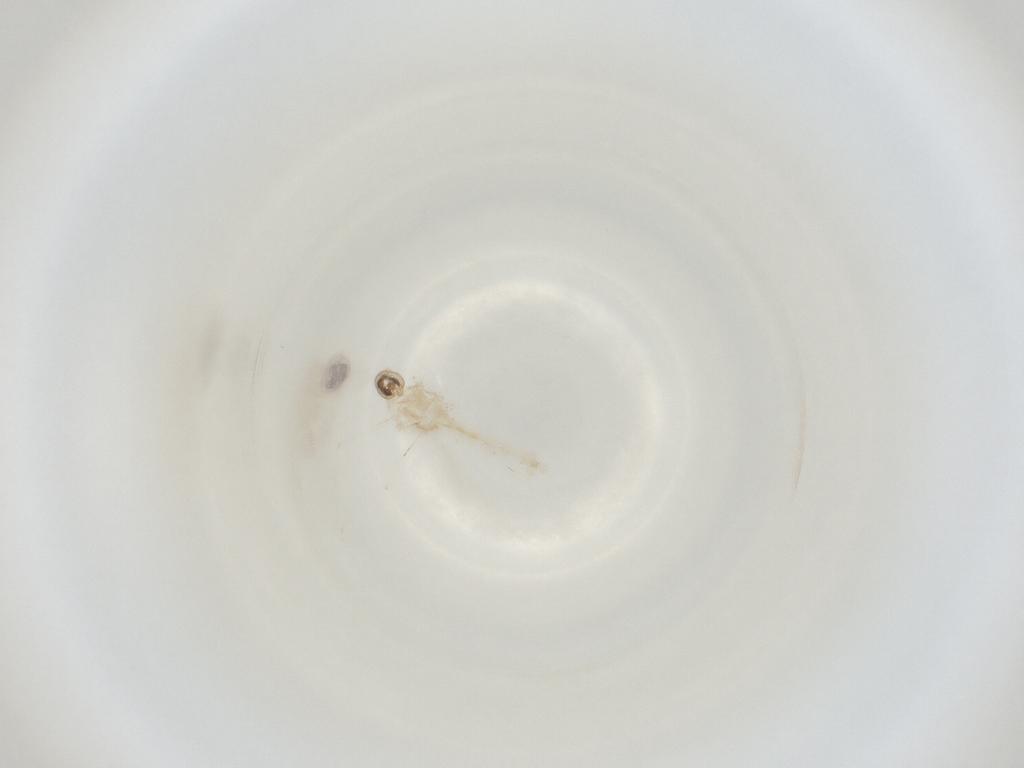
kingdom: Animalia
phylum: Arthropoda
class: Insecta
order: Diptera
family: Cecidomyiidae
